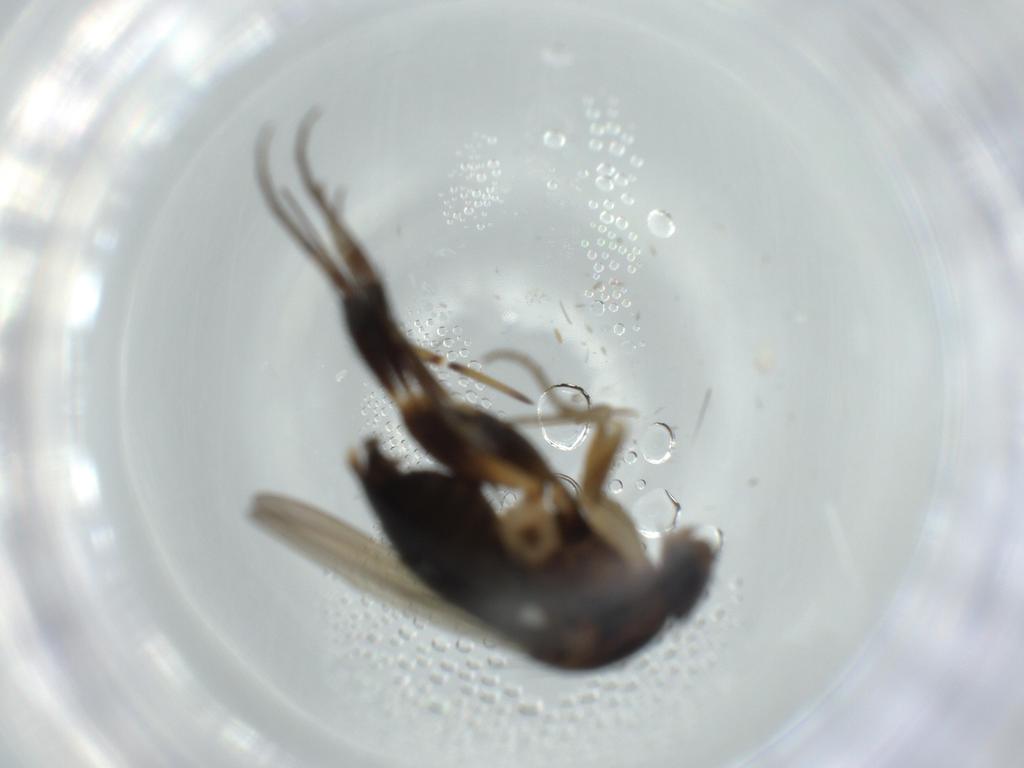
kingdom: Animalia
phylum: Arthropoda
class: Insecta
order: Diptera
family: Phoridae
